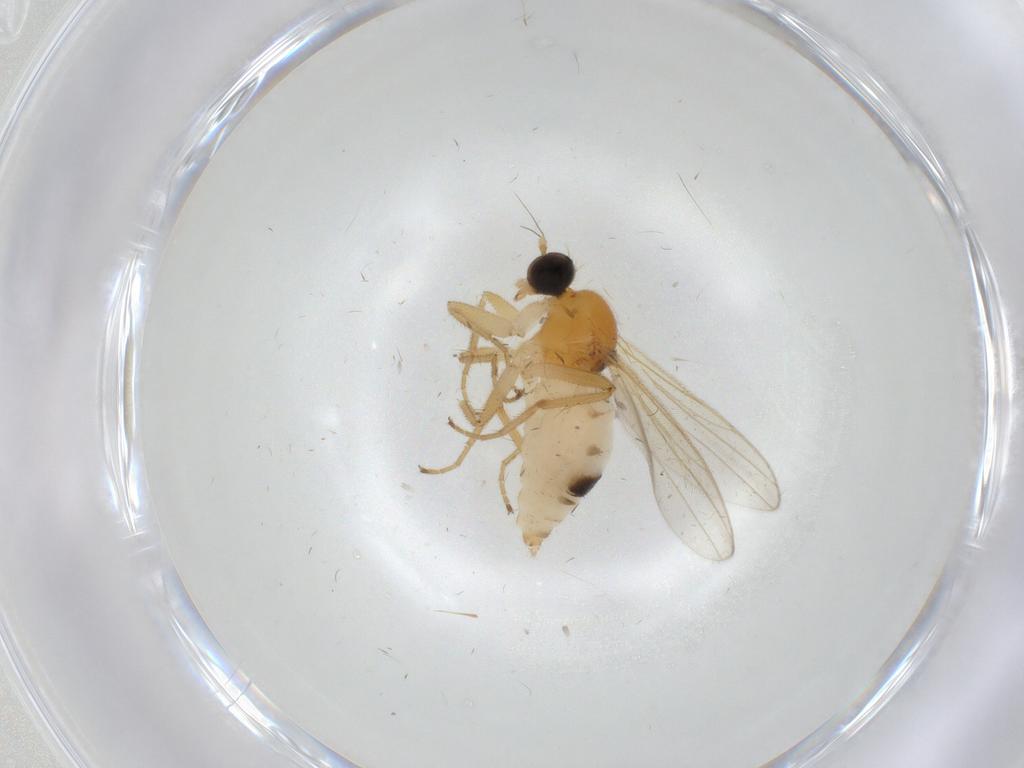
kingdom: Animalia
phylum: Arthropoda
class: Insecta
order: Diptera
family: Hybotidae
